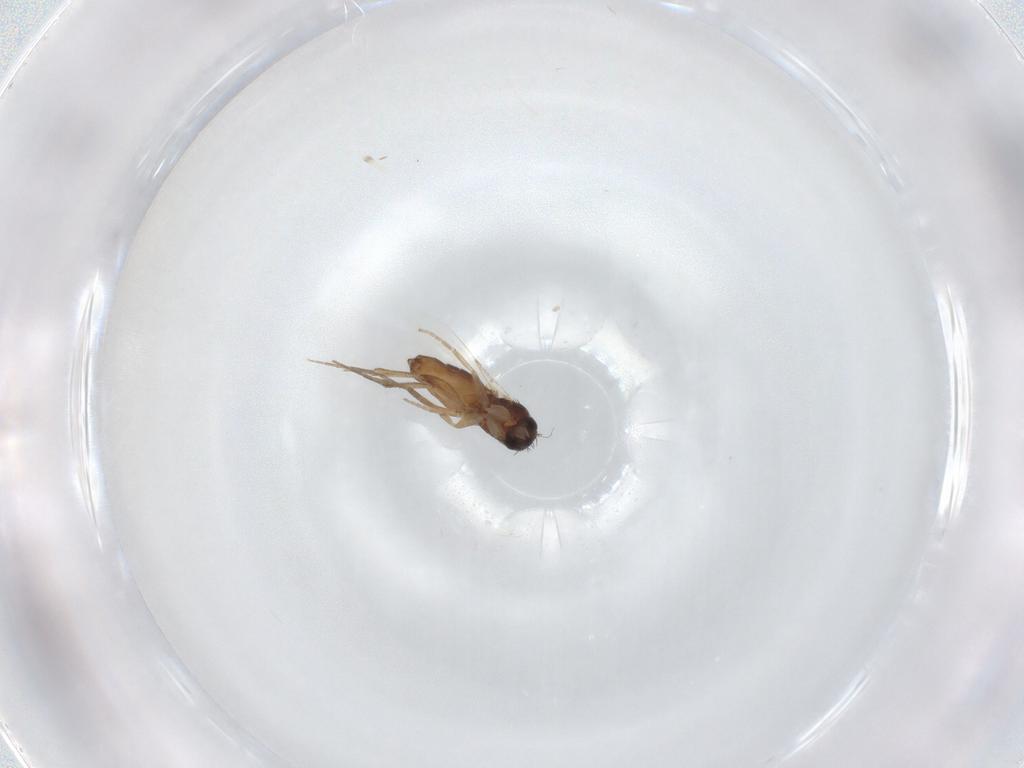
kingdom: Animalia
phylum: Arthropoda
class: Insecta
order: Diptera
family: Phoridae
